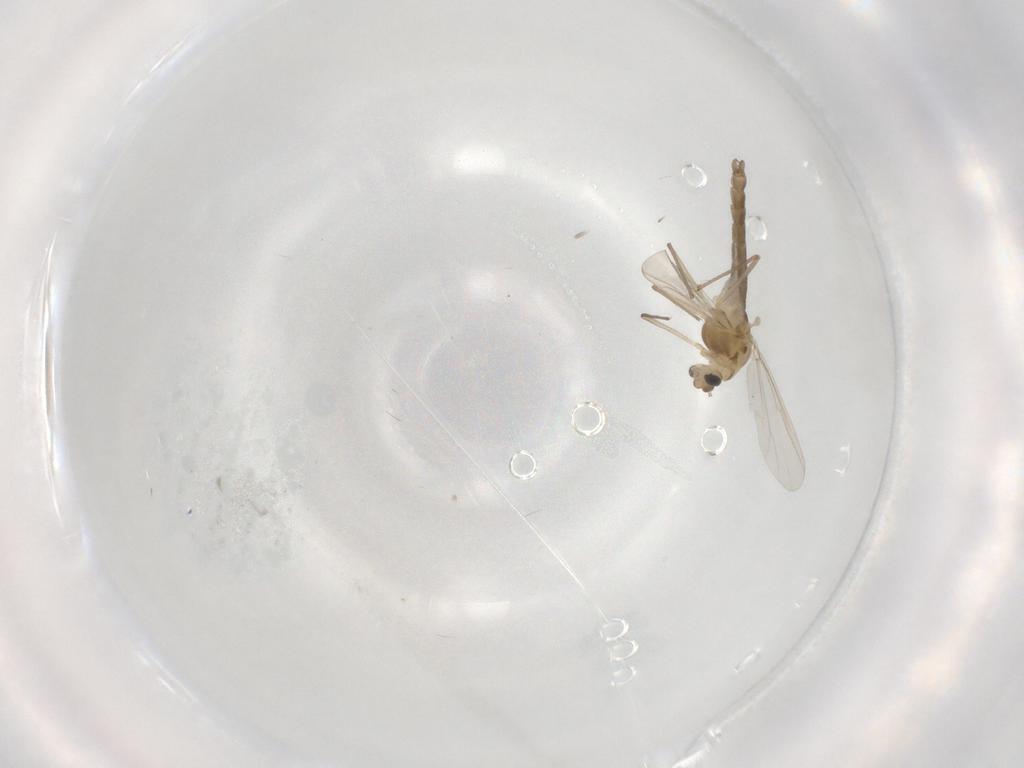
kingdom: Animalia
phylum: Arthropoda
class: Insecta
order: Diptera
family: Chironomidae
